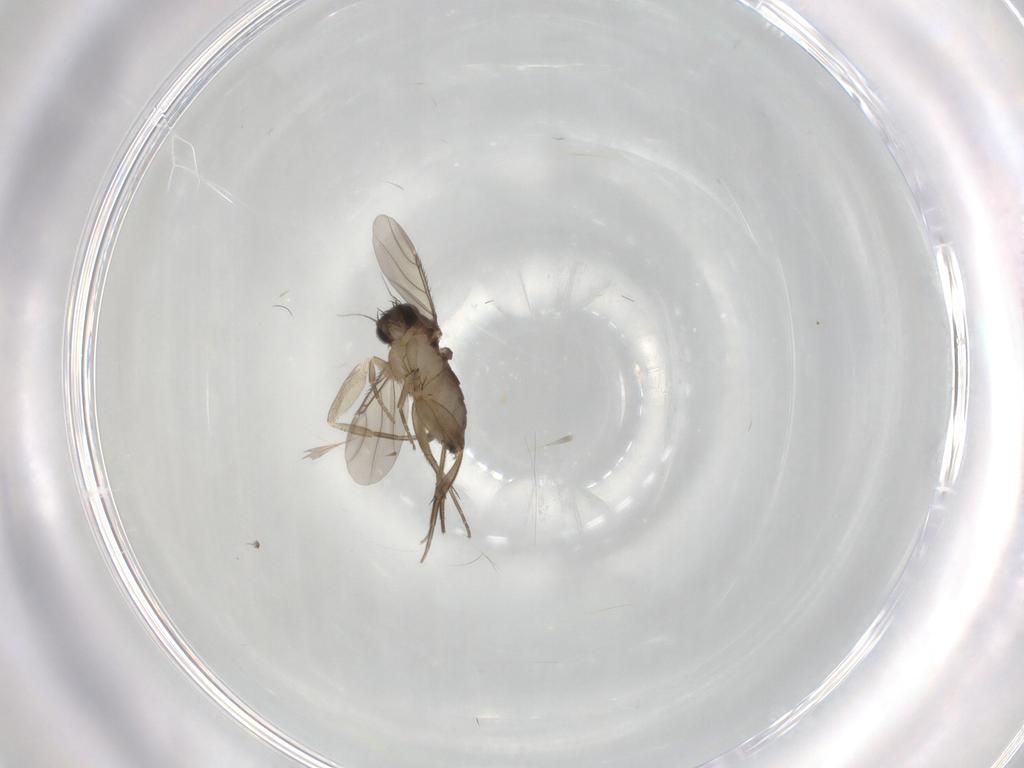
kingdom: Animalia
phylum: Arthropoda
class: Insecta
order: Diptera
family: Phoridae
